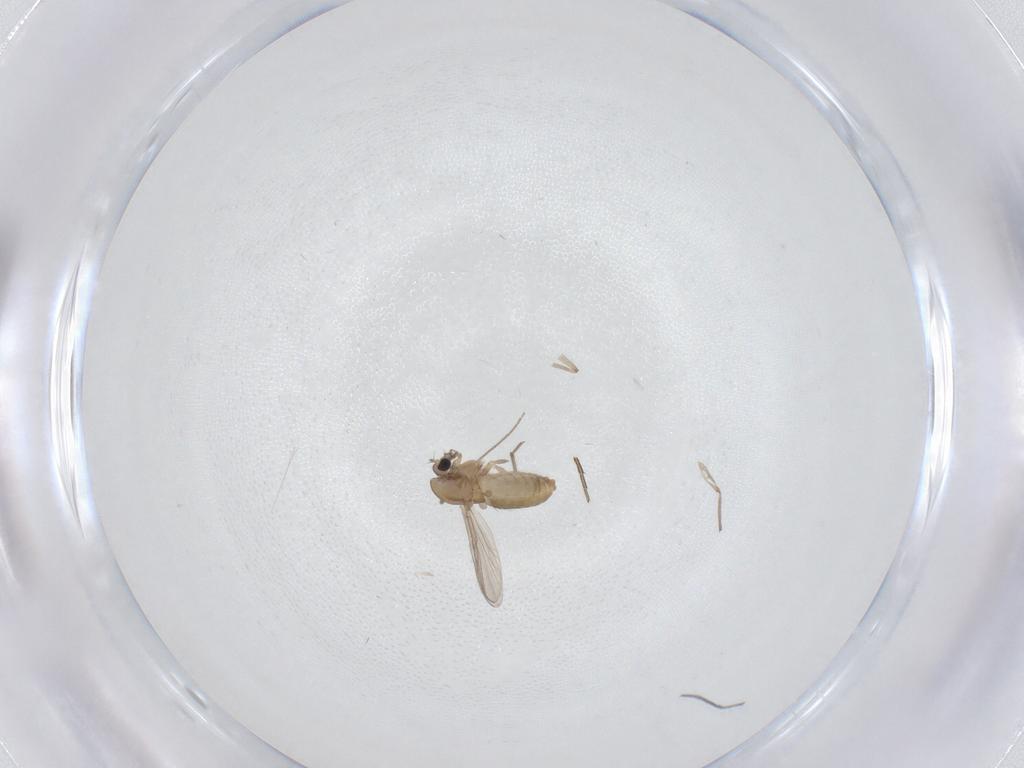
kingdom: Animalia
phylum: Arthropoda
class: Insecta
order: Diptera
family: Chironomidae
